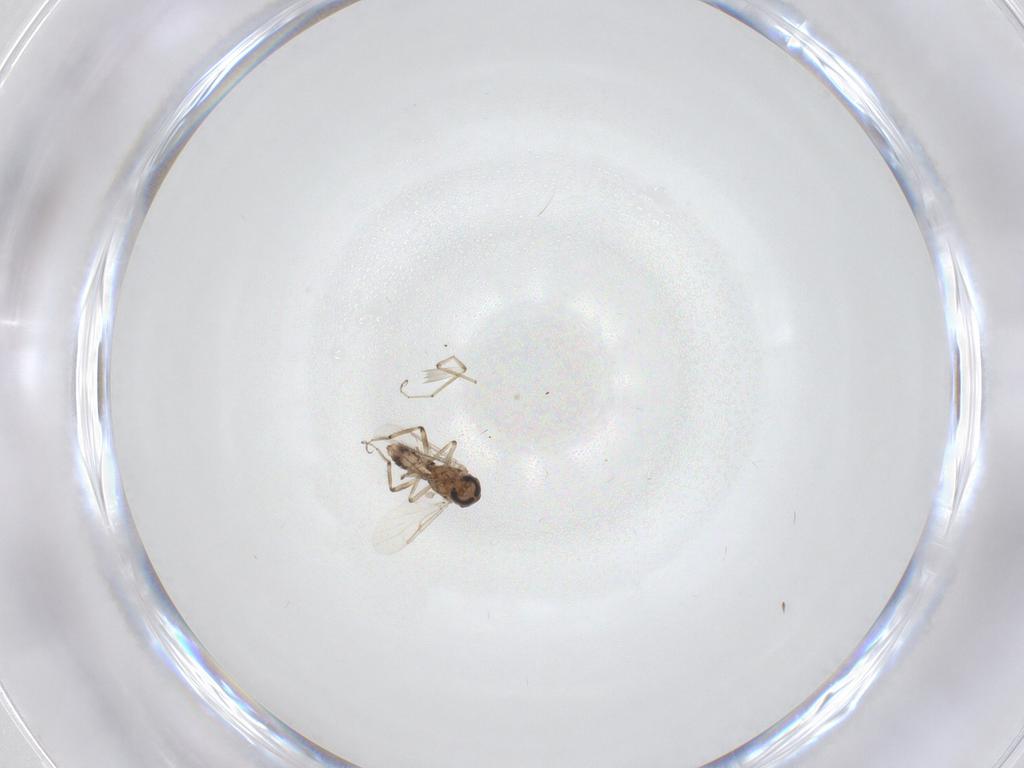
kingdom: Animalia
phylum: Arthropoda
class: Insecta
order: Diptera
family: Ceratopogonidae
